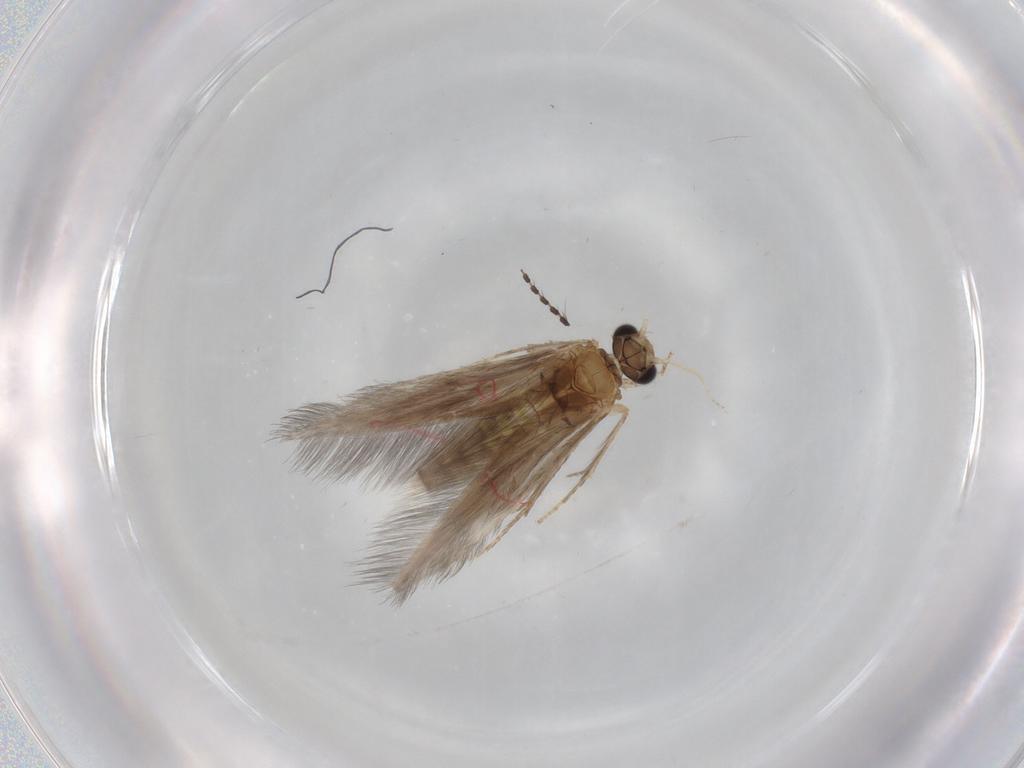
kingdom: Animalia
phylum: Arthropoda
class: Insecta
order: Trichoptera
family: Hydroptilidae
